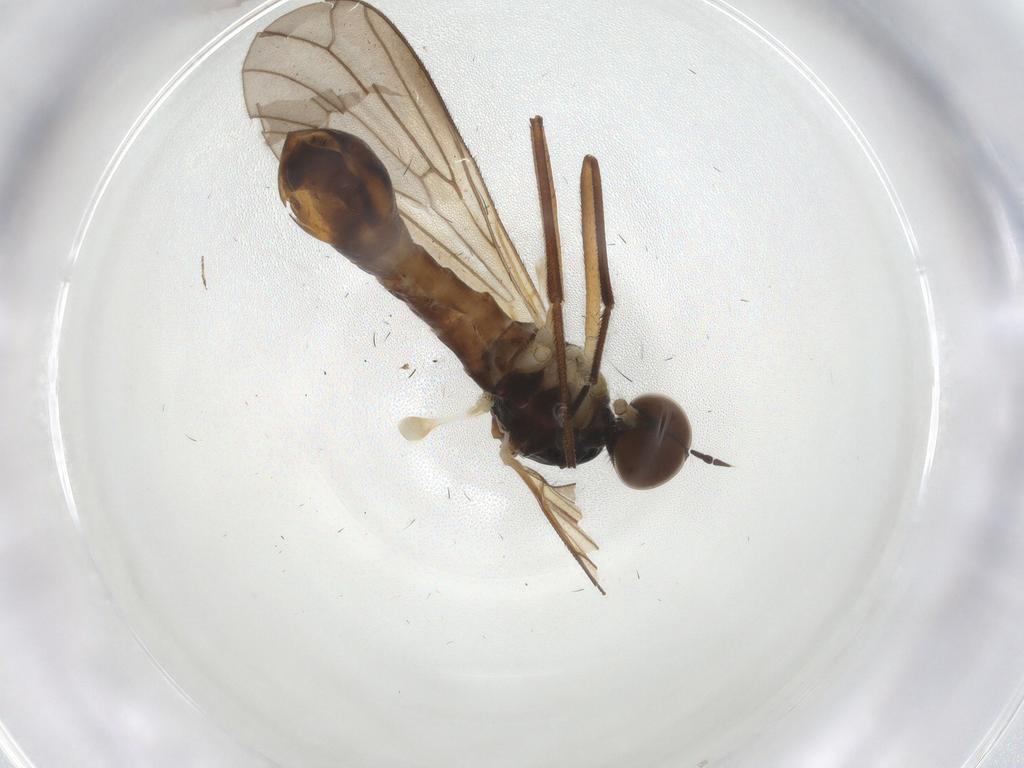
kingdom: Animalia
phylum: Arthropoda
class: Insecta
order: Diptera
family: Brachystomatidae
